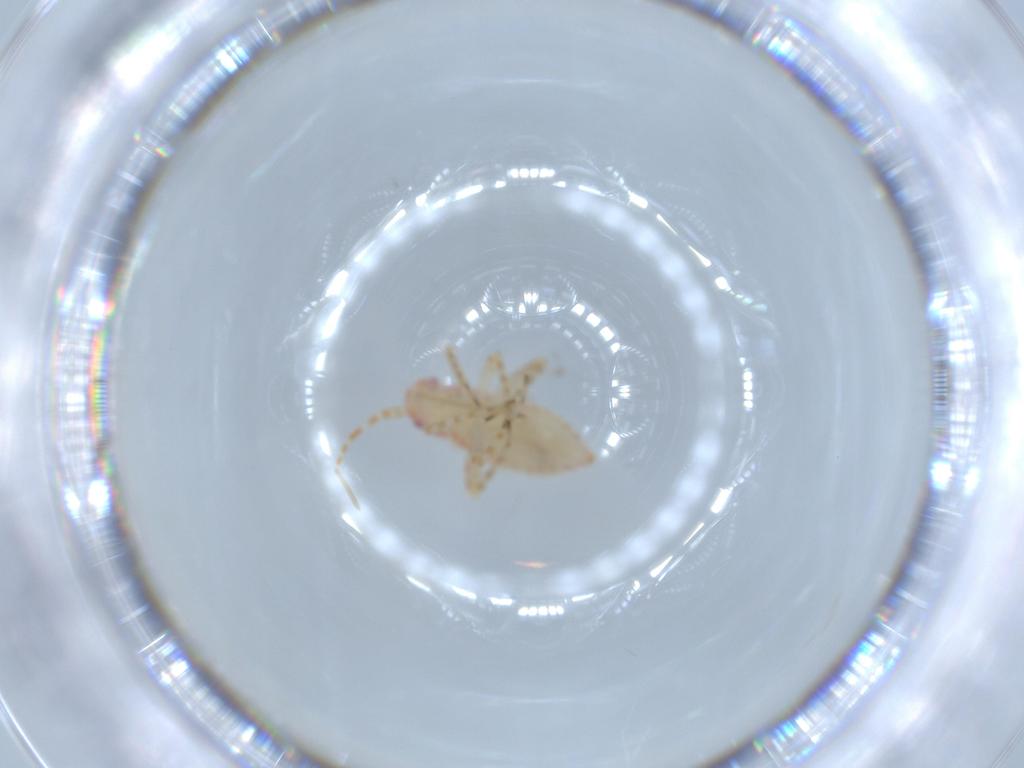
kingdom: Animalia
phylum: Arthropoda
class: Insecta
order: Hemiptera
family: Miridae
